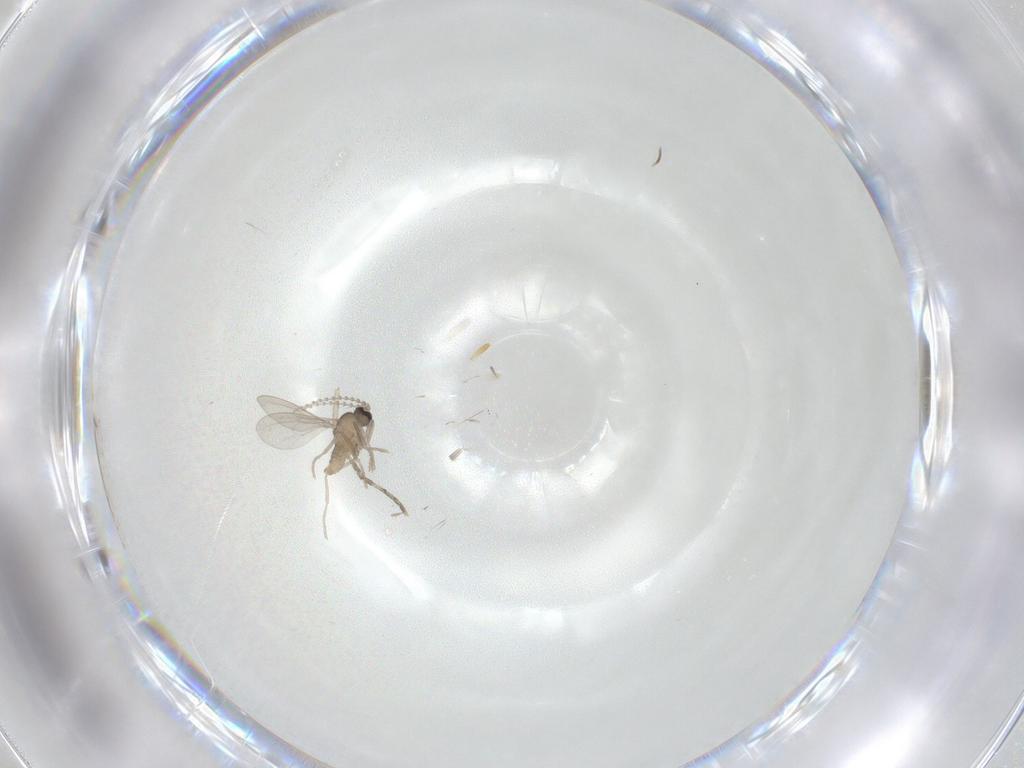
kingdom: Animalia
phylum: Arthropoda
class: Insecta
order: Diptera
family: Cecidomyiidae
